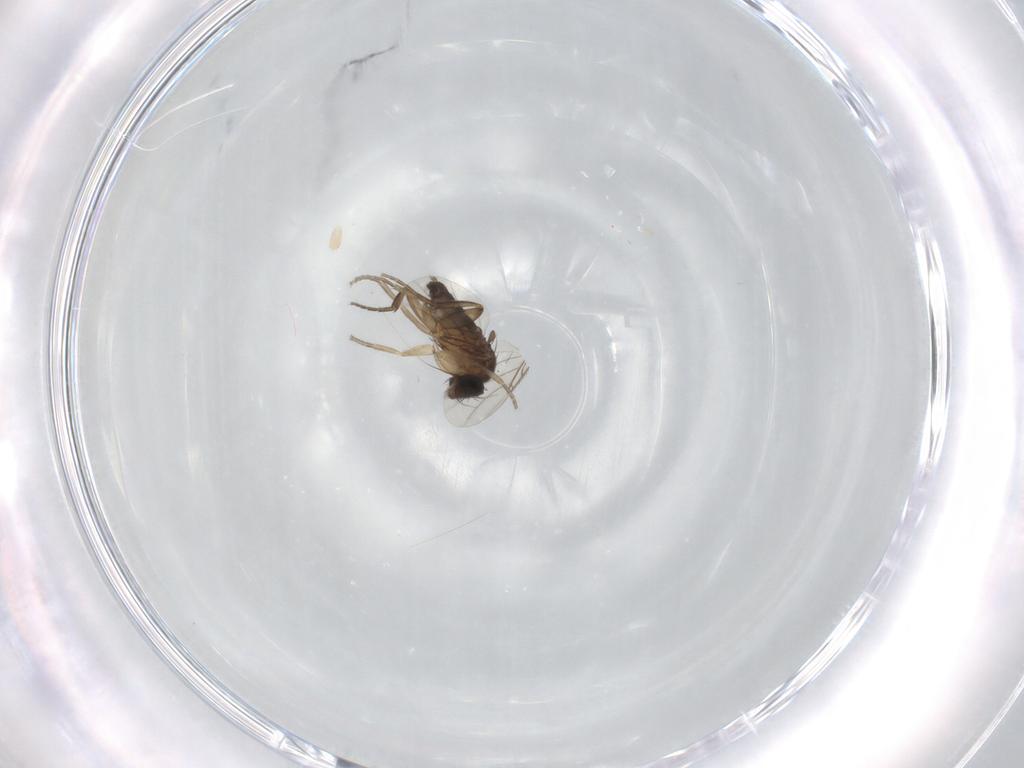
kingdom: Animalia
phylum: Arthropoda
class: Insecta
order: Diptera
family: Phoridae
